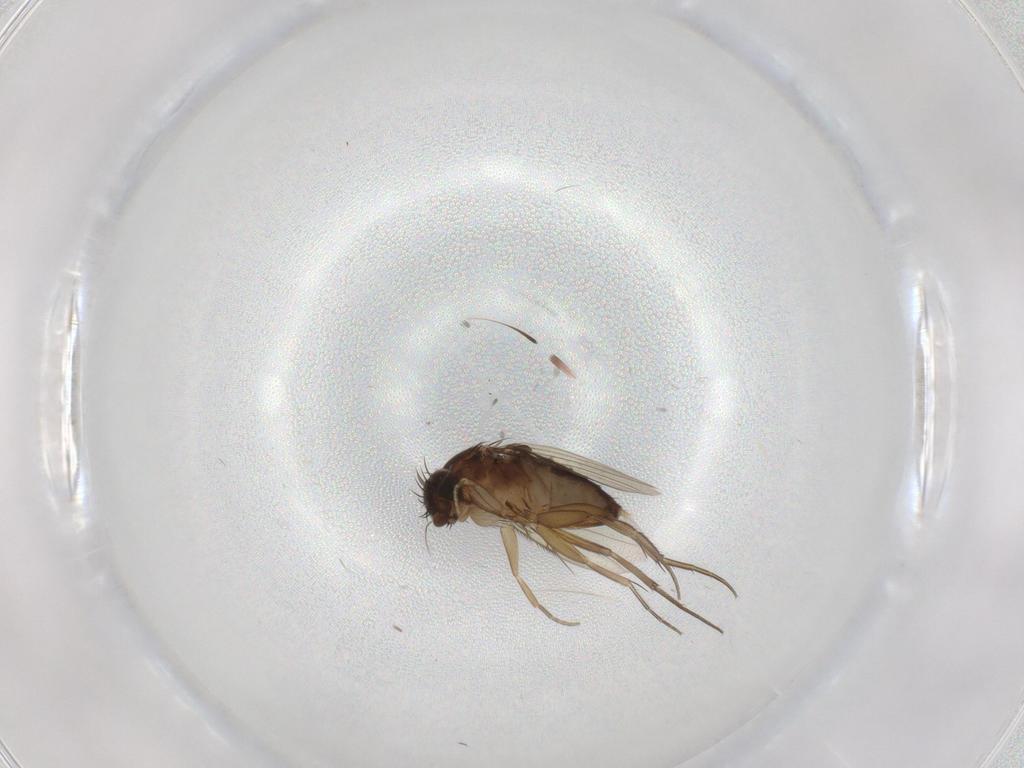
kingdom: Animalia
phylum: Arthropoda
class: Insecta
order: Diptera
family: Phoridae
